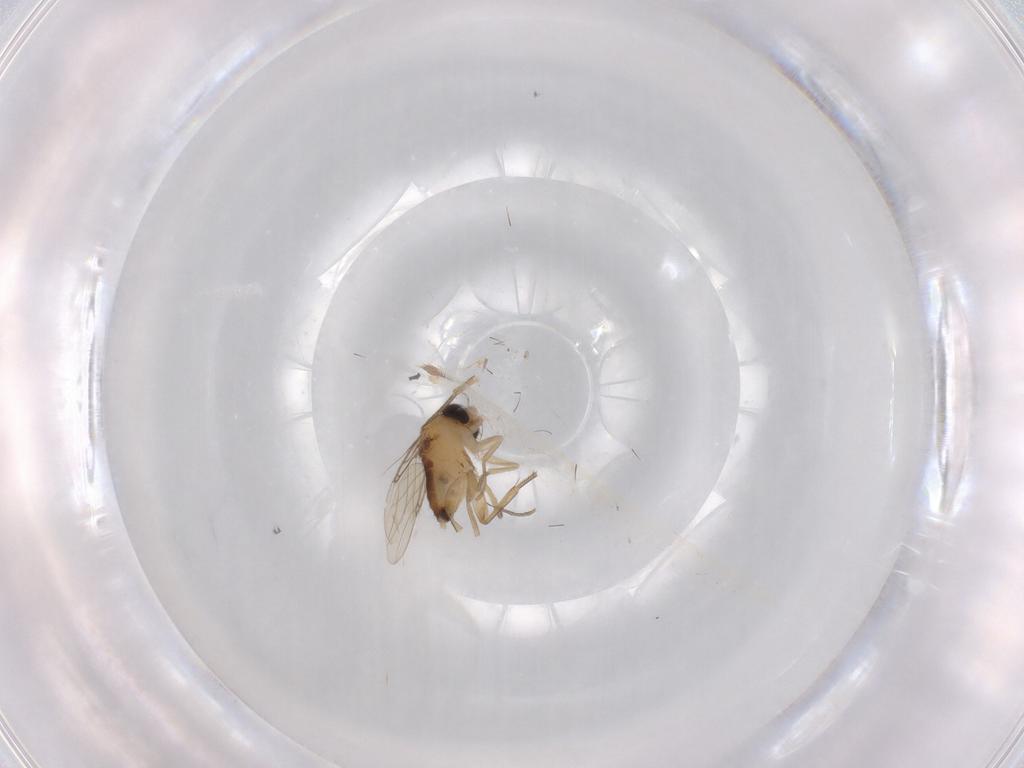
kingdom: Animalia
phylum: Arthropoda
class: Insecta
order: Diptera
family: Phoridae
